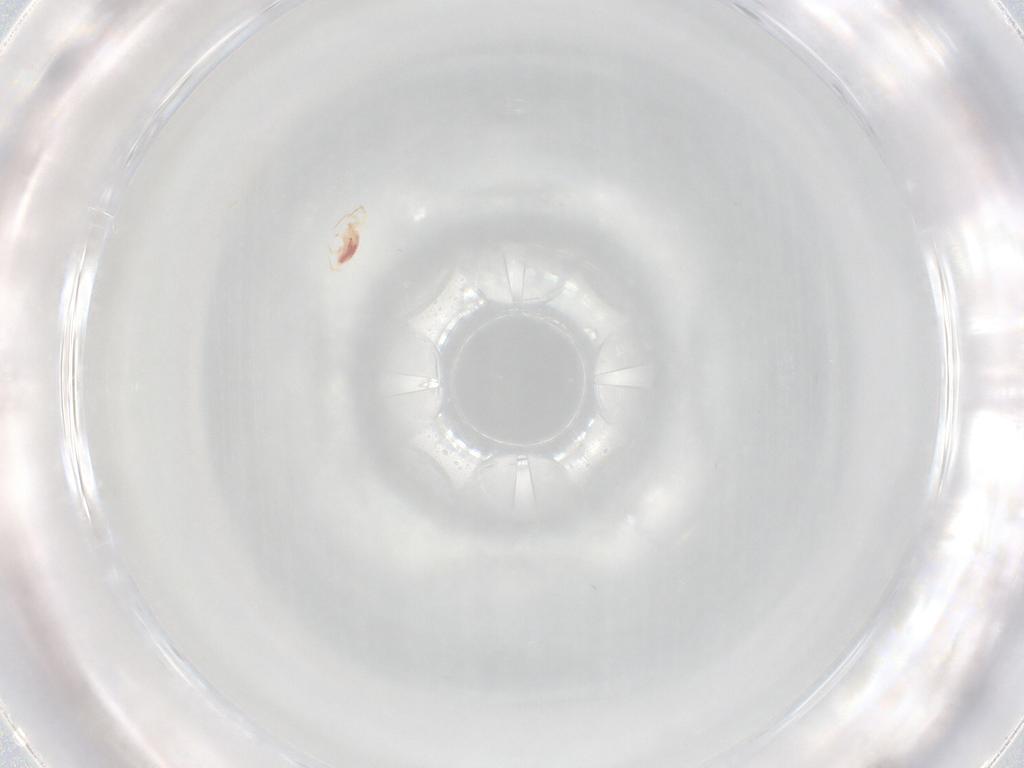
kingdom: Animalia
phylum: Arthropoda
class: Arachnida
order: Trombidiformes
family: Erythraeidae
